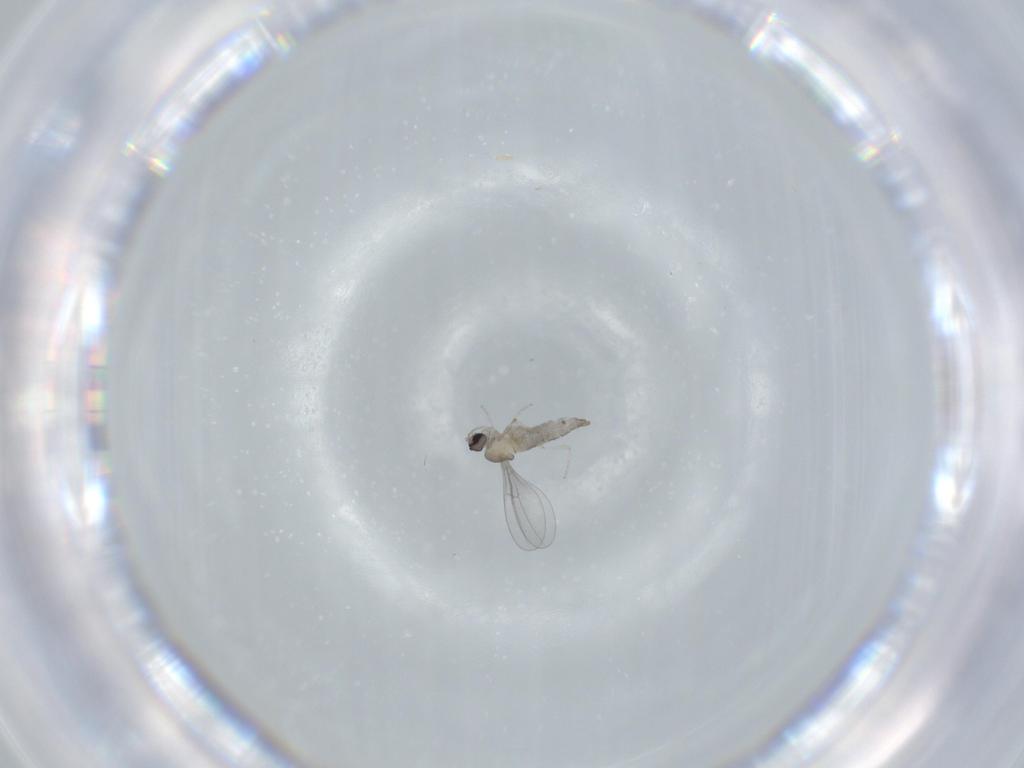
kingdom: Animalia
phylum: Arthropoda
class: Insecta
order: Diptera
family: Cecidomyiidae
